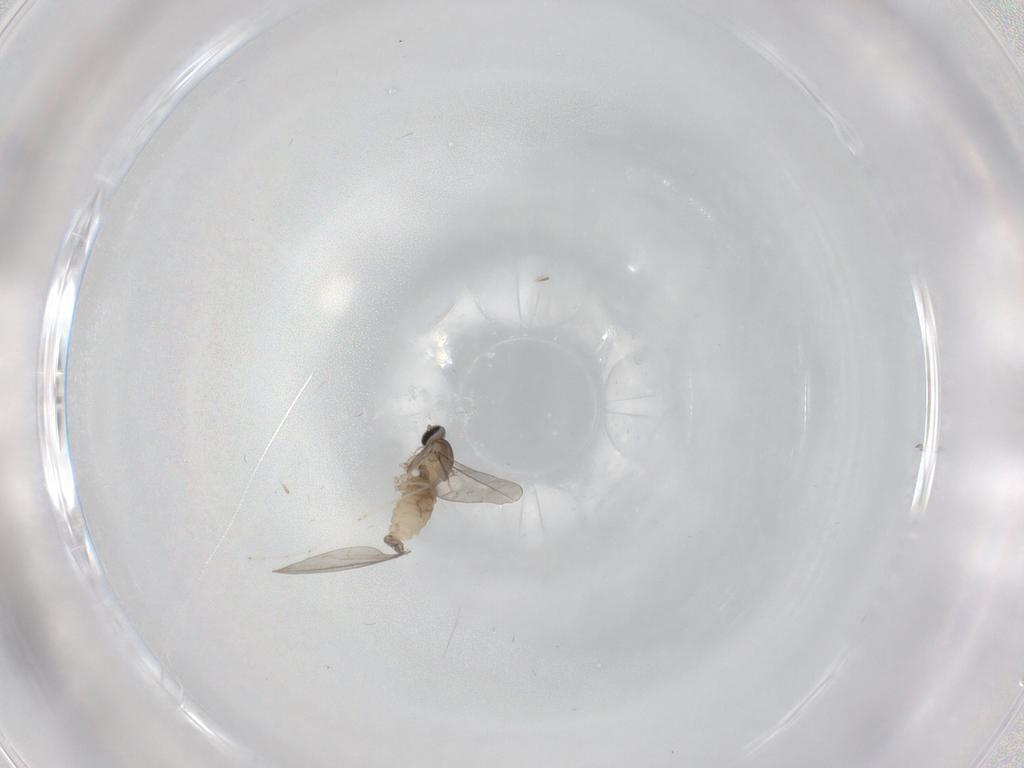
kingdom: Animalia
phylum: Arthropoda
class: Insecta
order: Diptera
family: Cecidomyiidae
